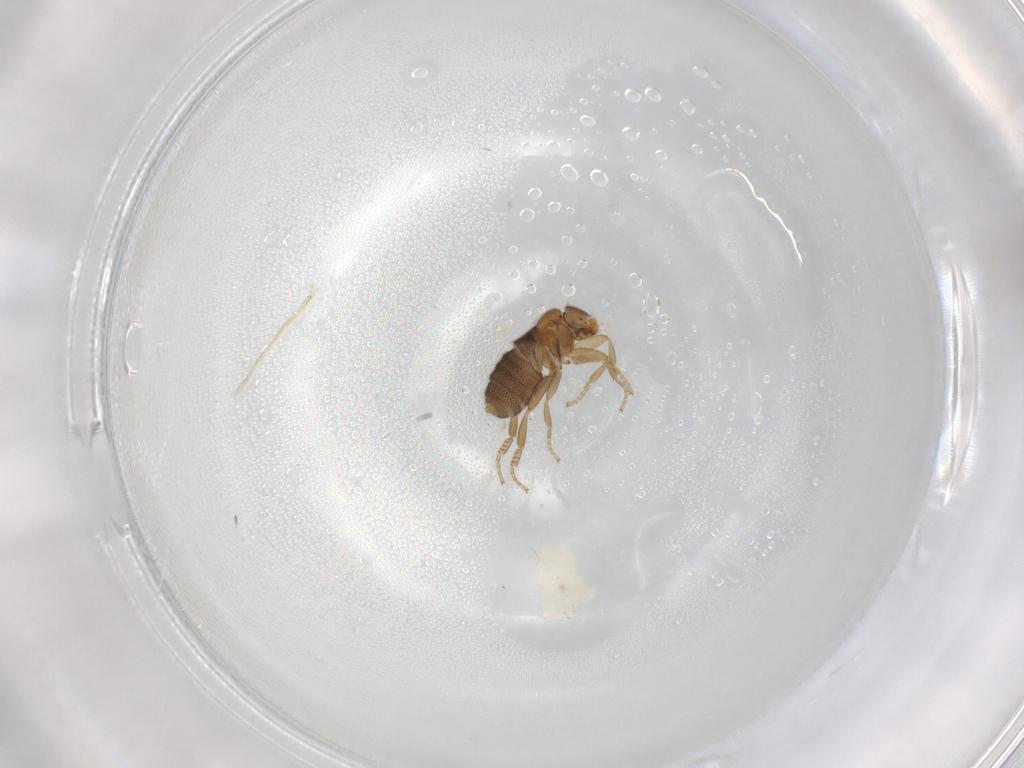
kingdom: Animalia
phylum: Arthropoda
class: Insecta
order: Diptera
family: Phoridae
